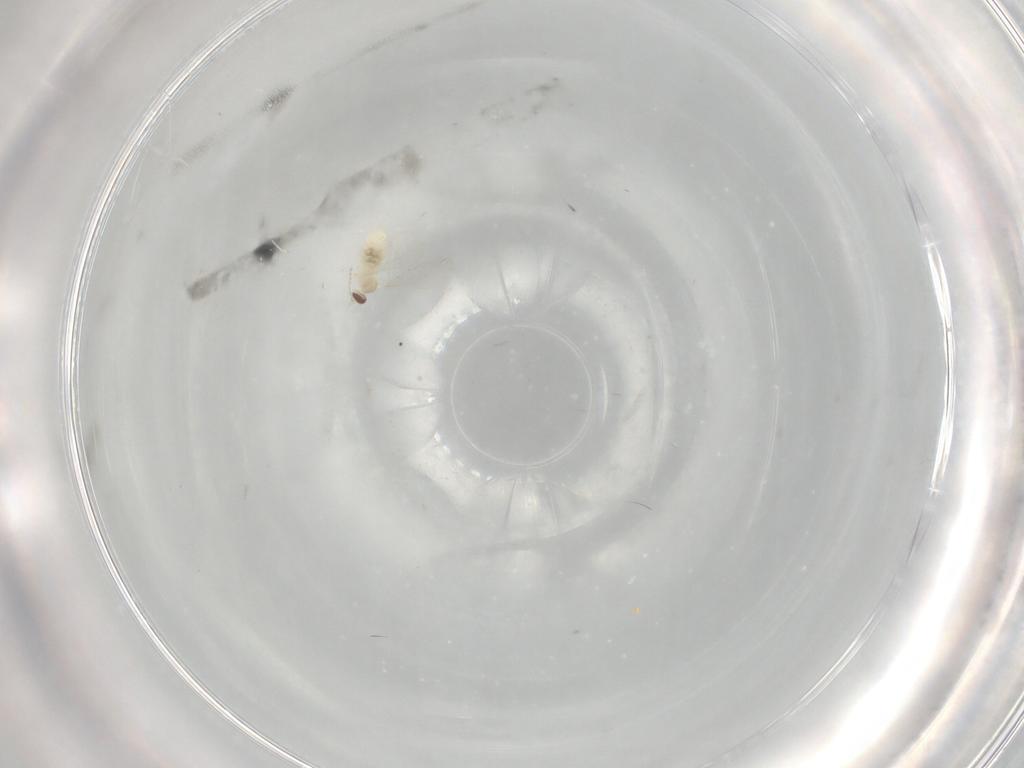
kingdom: Animalia
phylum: Arthropoda
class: Insecta
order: Diptera
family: Cecidomyiidae
